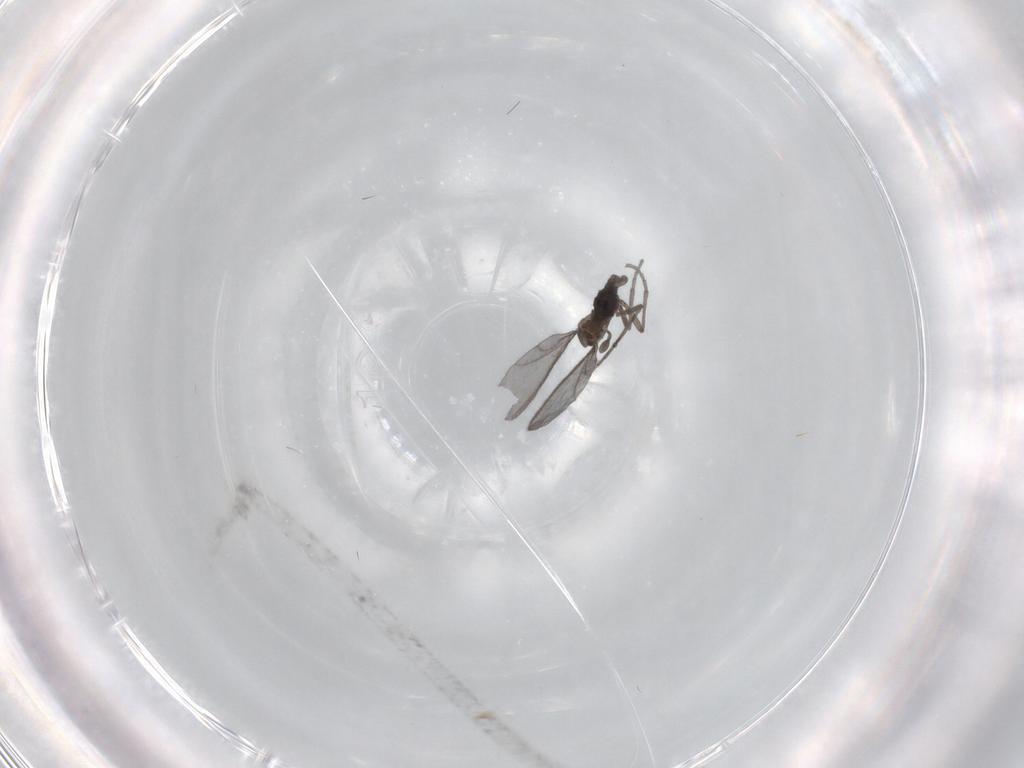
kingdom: Animalia
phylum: Arthropoda
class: Insecta
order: Diptera
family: Sciaridae
